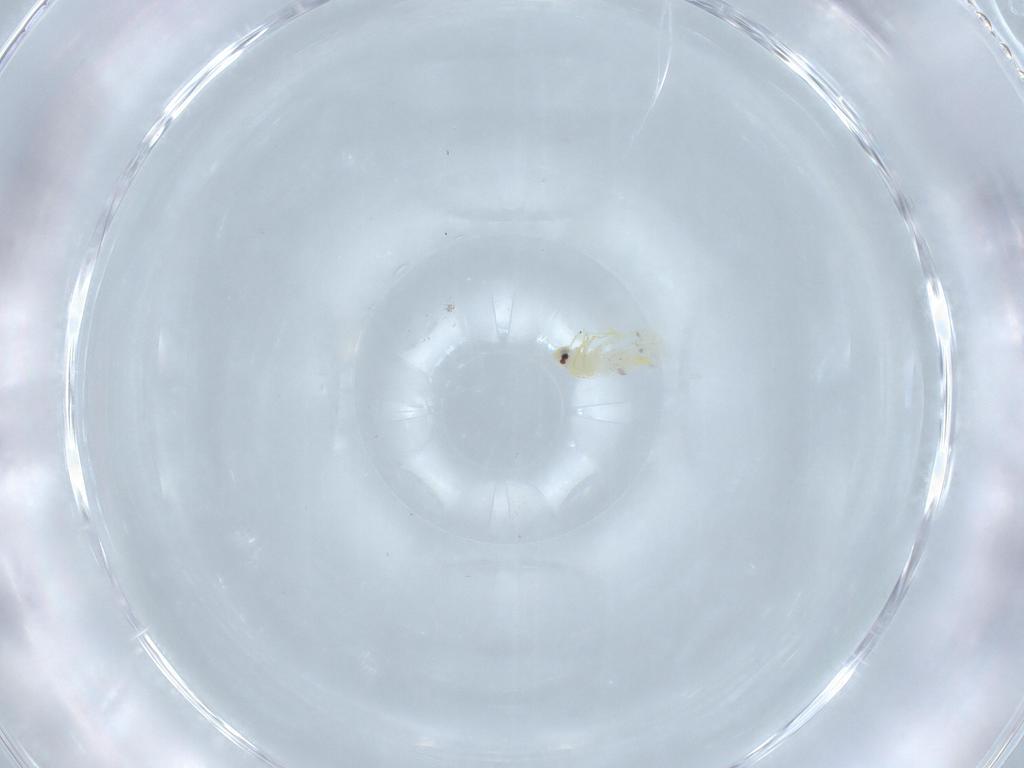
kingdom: Animalia
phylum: Arthropoda
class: Insecta
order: Hemiptera
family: Aleyrodidae
